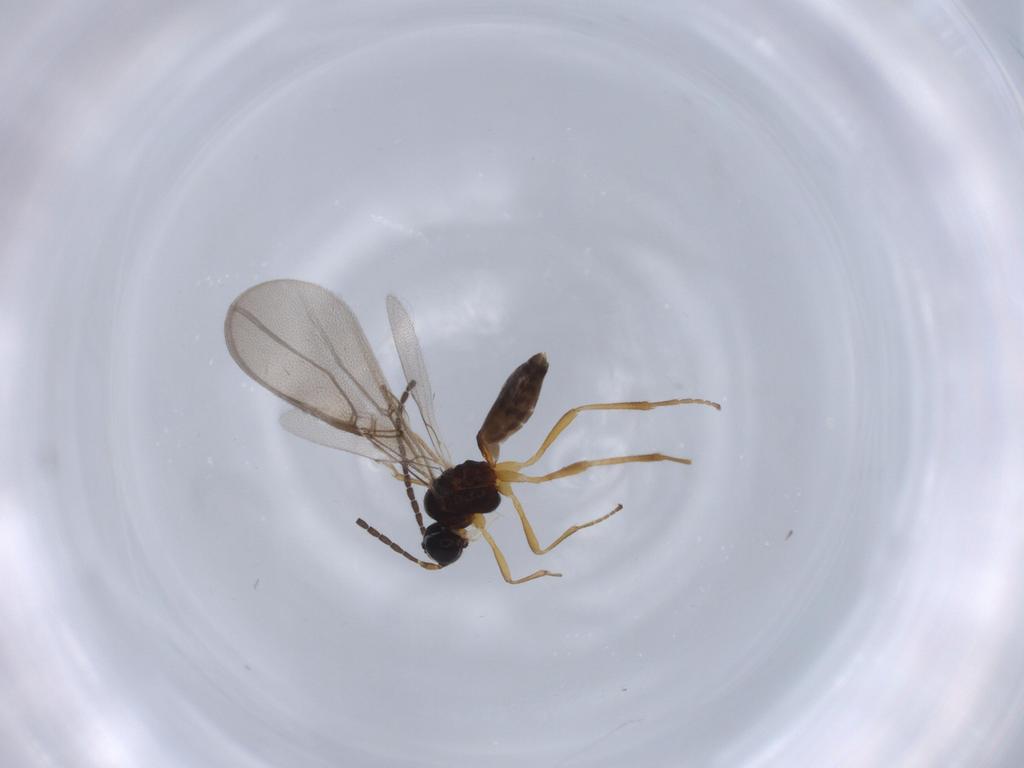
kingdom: Animalia
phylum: Arthropoda
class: Insecta
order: Hymenoptera
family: Braconidae
